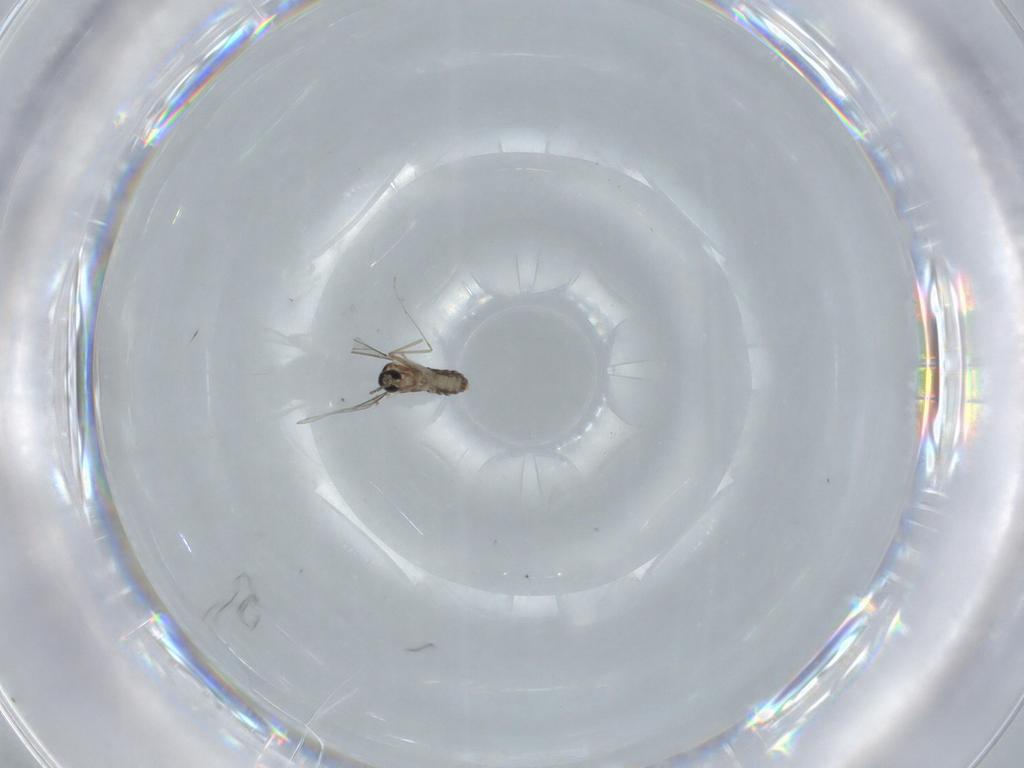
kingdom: Animalia
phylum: Arthropoda
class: Insecta
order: Diptera
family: Cecidomyiidae
